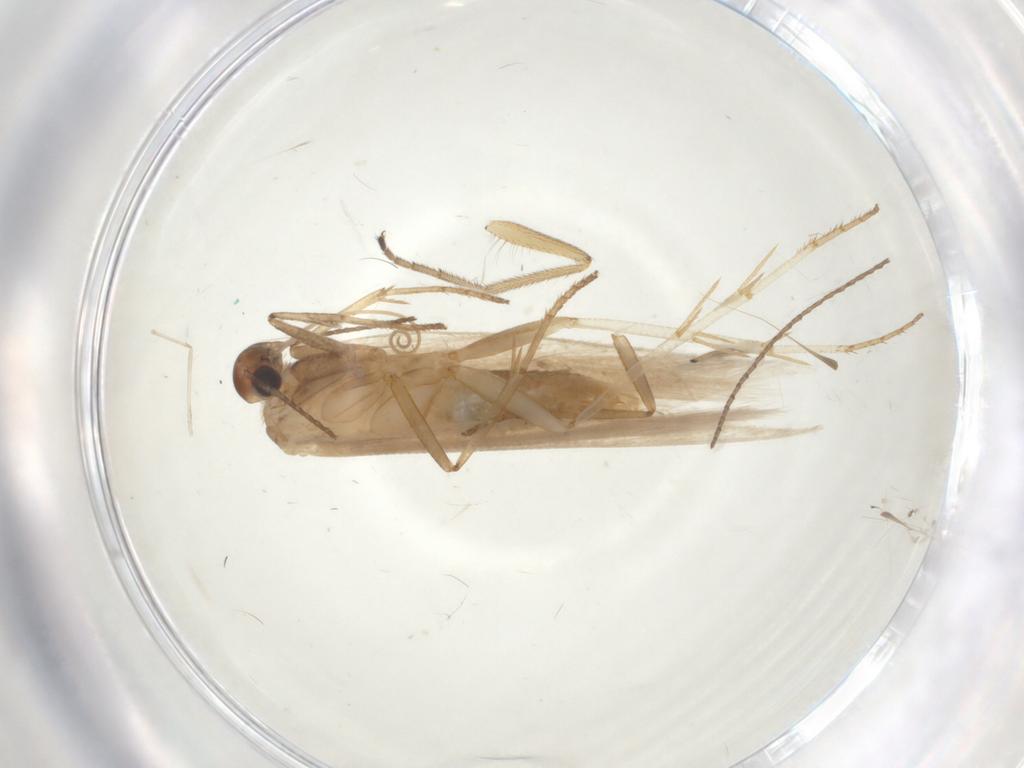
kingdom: Animalia
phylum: Arthropoda
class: Insecta
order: Lepidoptera
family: Gelechiidae
